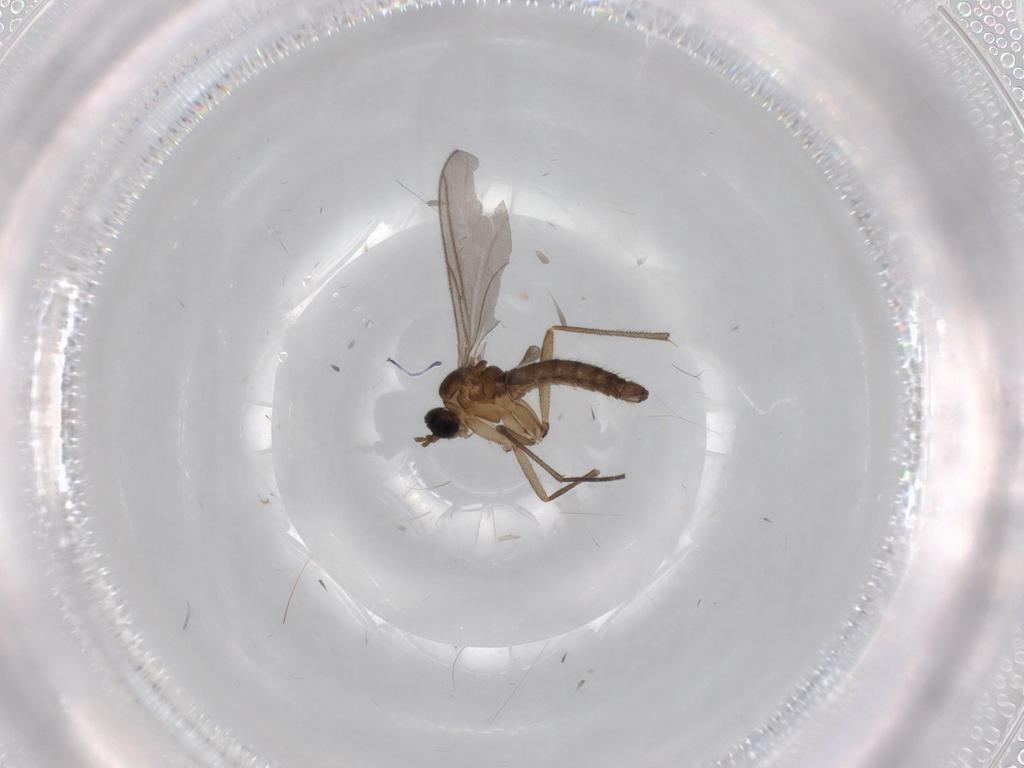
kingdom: Animalia
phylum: Arthropoda
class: Insecta
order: Diptera
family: Sciaridae
